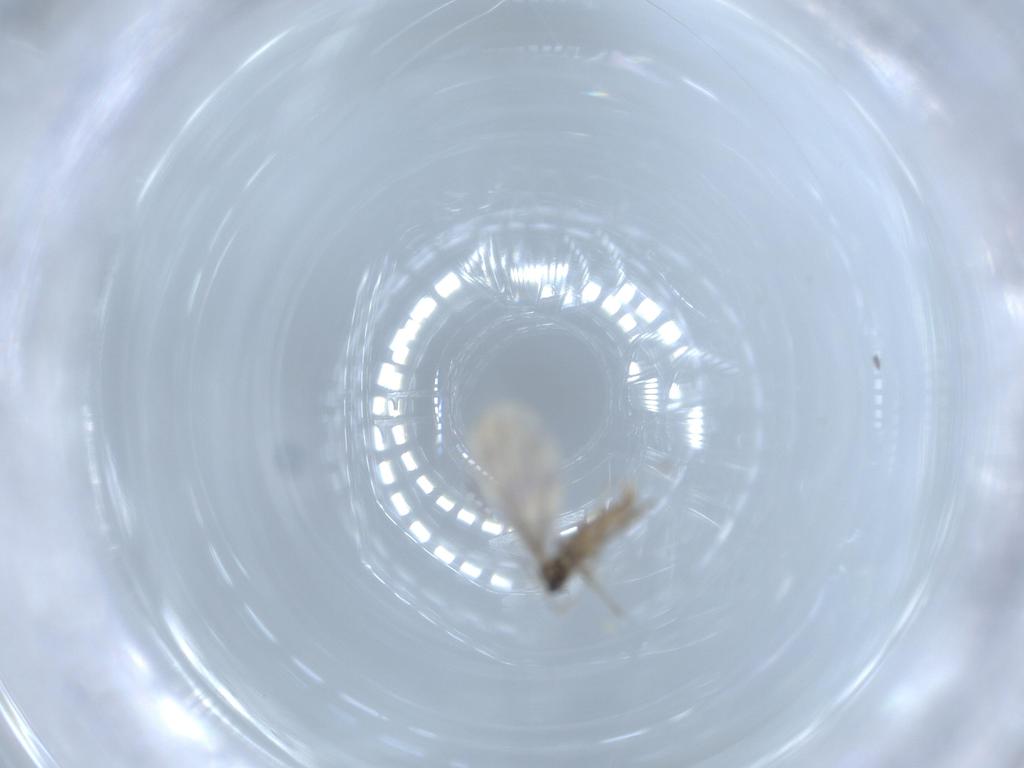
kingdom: Animalia
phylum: Arthropoda
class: Insecta
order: Diptera
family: Cecidomyiidae
